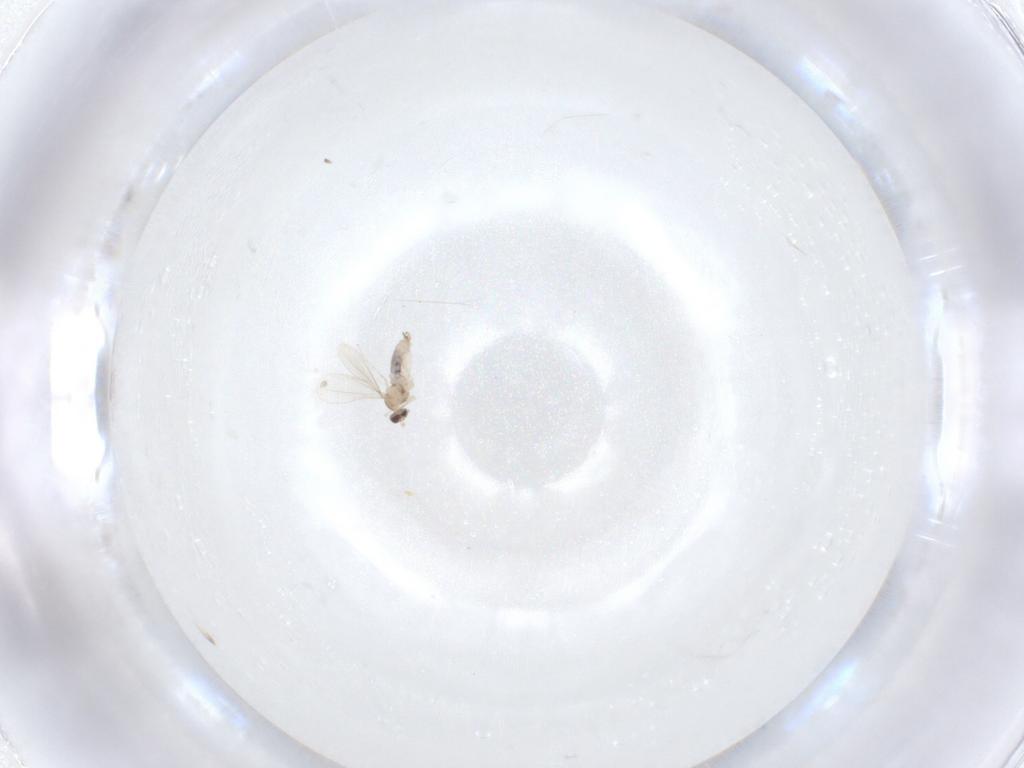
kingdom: Animalia
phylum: Arthropoda
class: Insecta
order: Diptera
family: Cecidomyiidae
